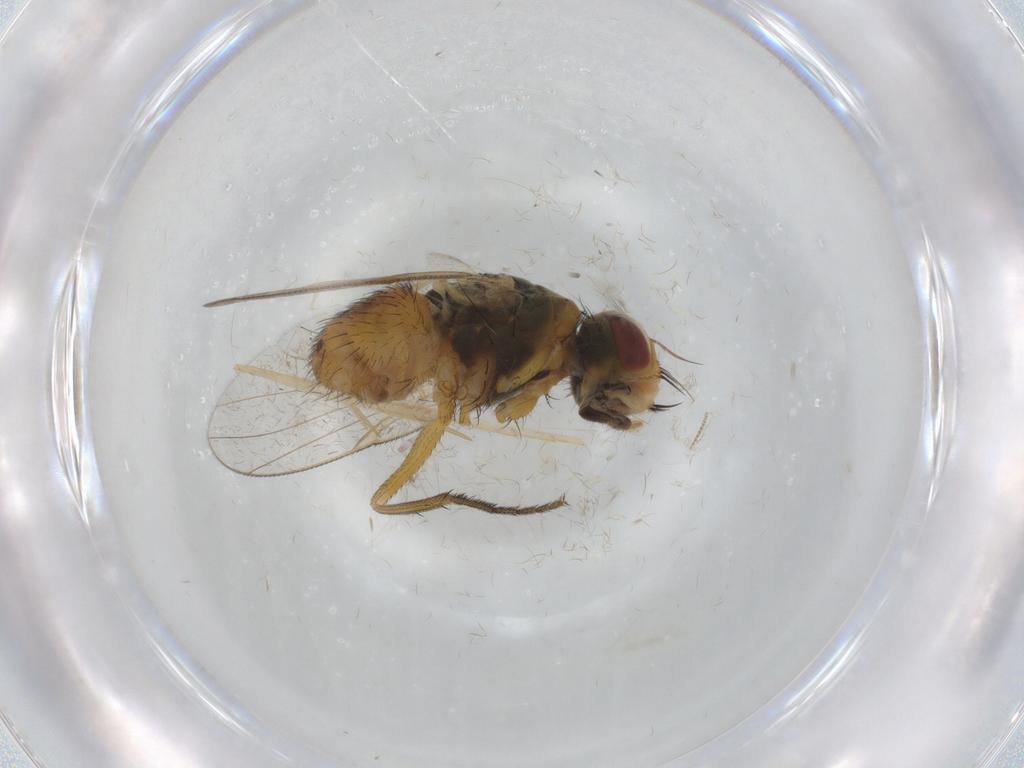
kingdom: Animalia
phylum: Arthropoda
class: Insecta
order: Diptera
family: Muscidae
